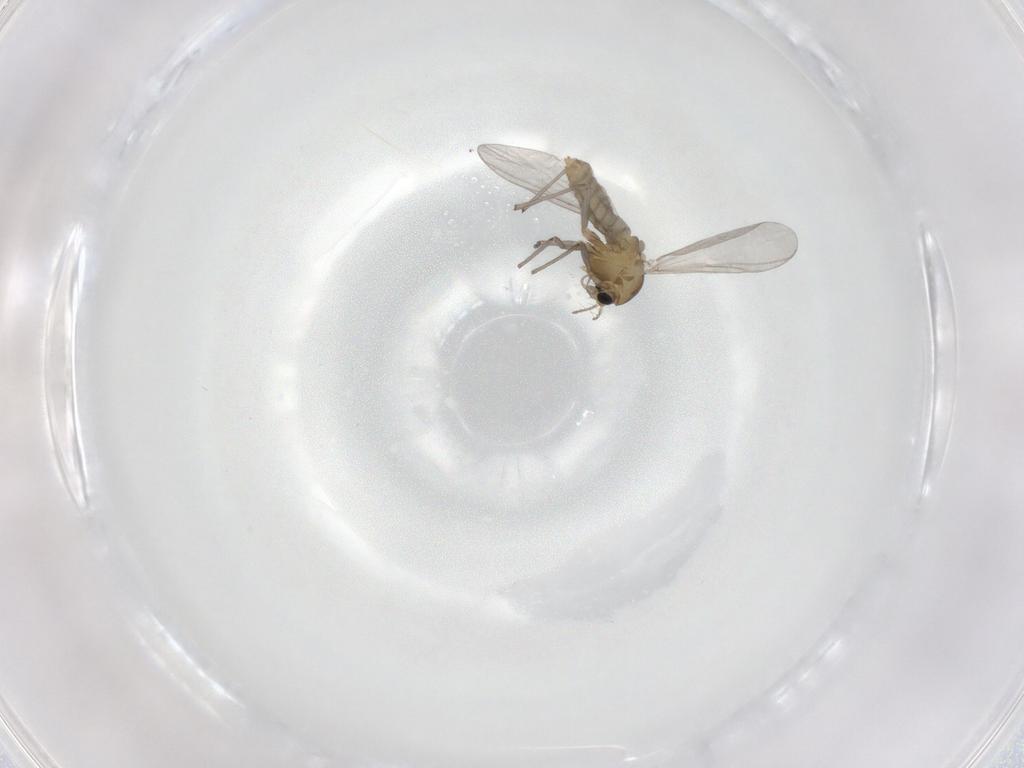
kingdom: Animalia
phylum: Arthropoda
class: Insecta
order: Diptera
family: Chironomidae
